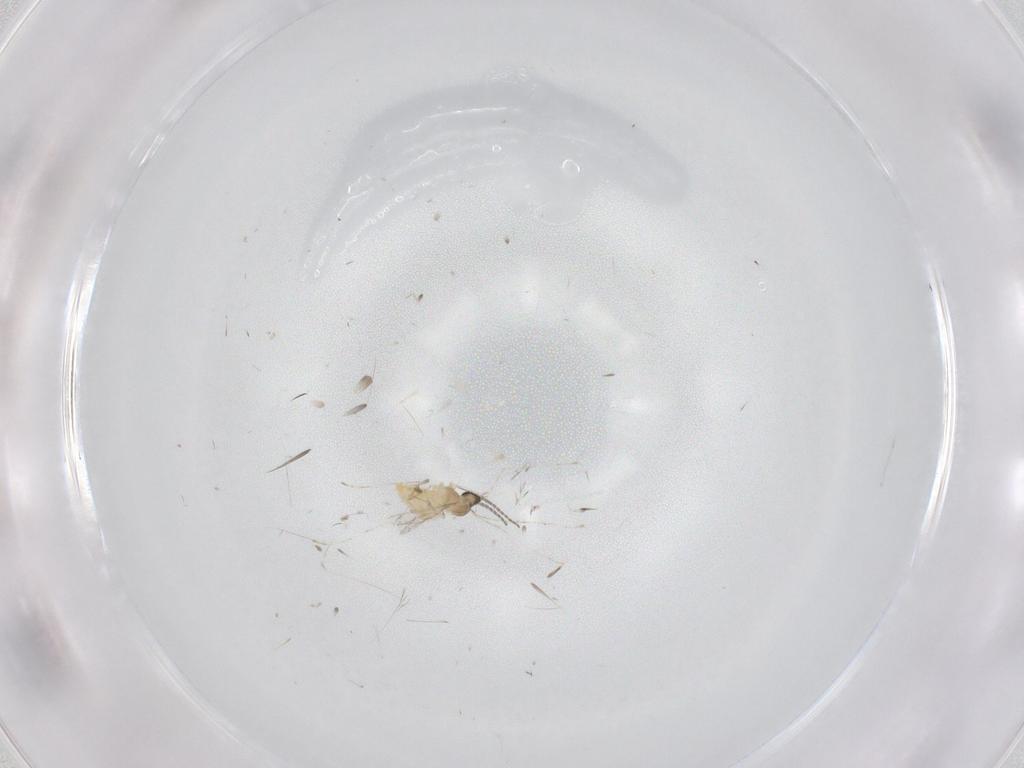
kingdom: Animalia
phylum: Arthropoda
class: Insecta
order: Diptera
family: Cecidomyiidae
